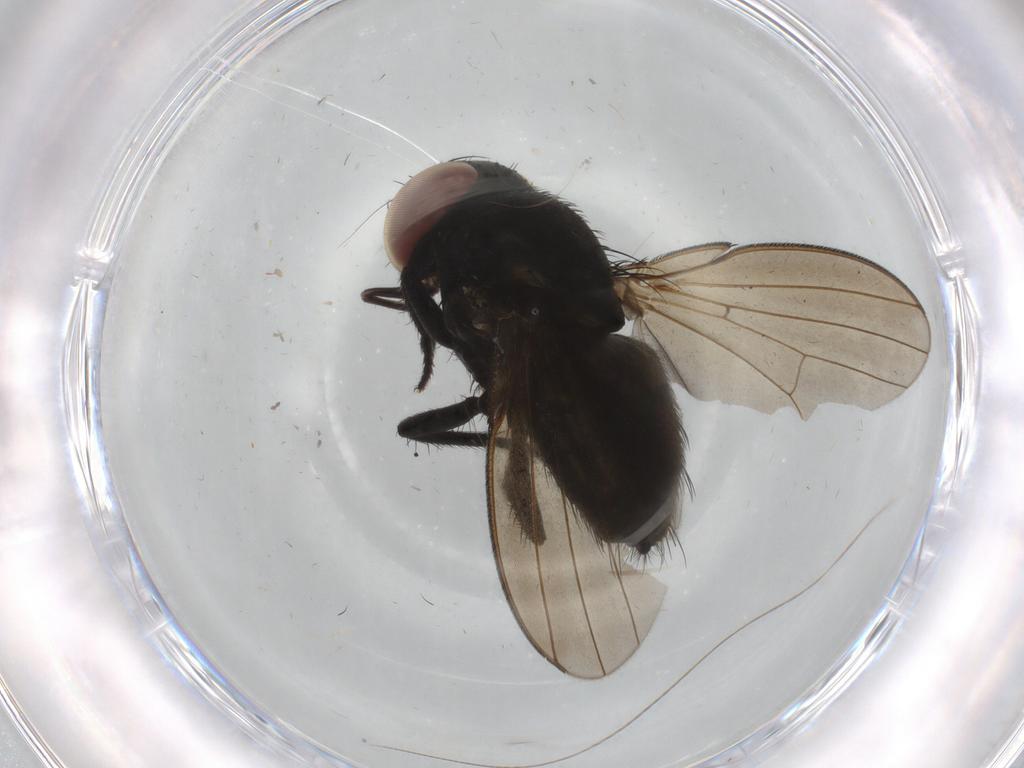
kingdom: Animalia
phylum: Arthropoda
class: Insecta
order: Diptera
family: Milichiidae
